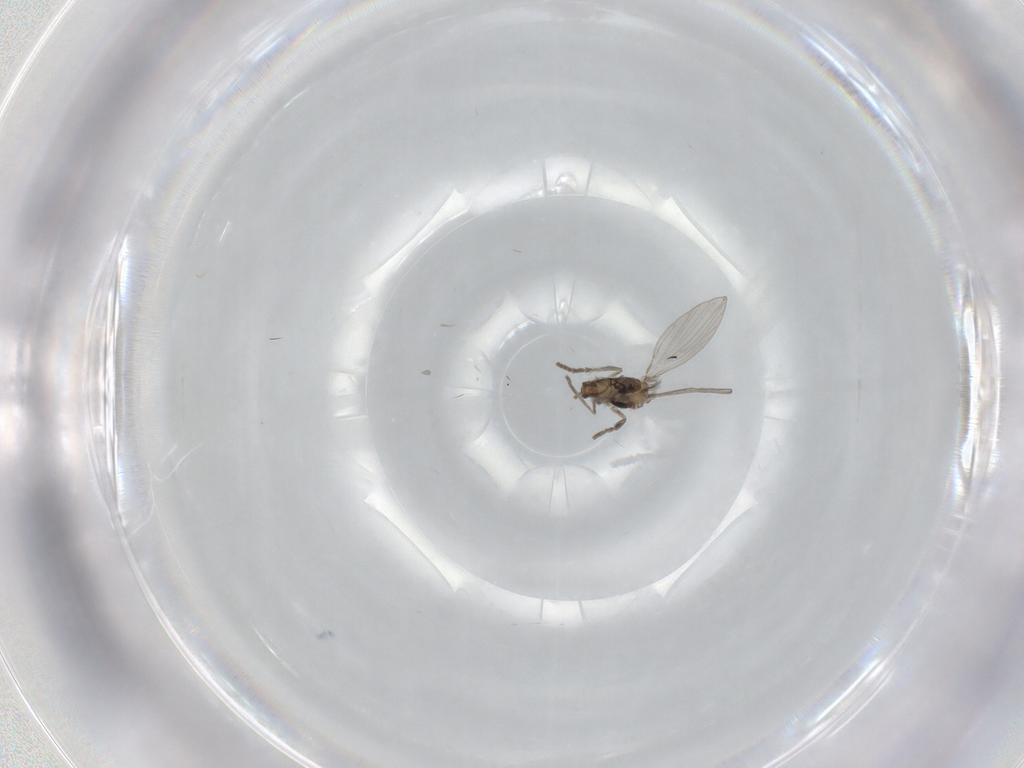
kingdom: Animalia
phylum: Arthropoda
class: Insecta
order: Diptera
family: Psychodidae
